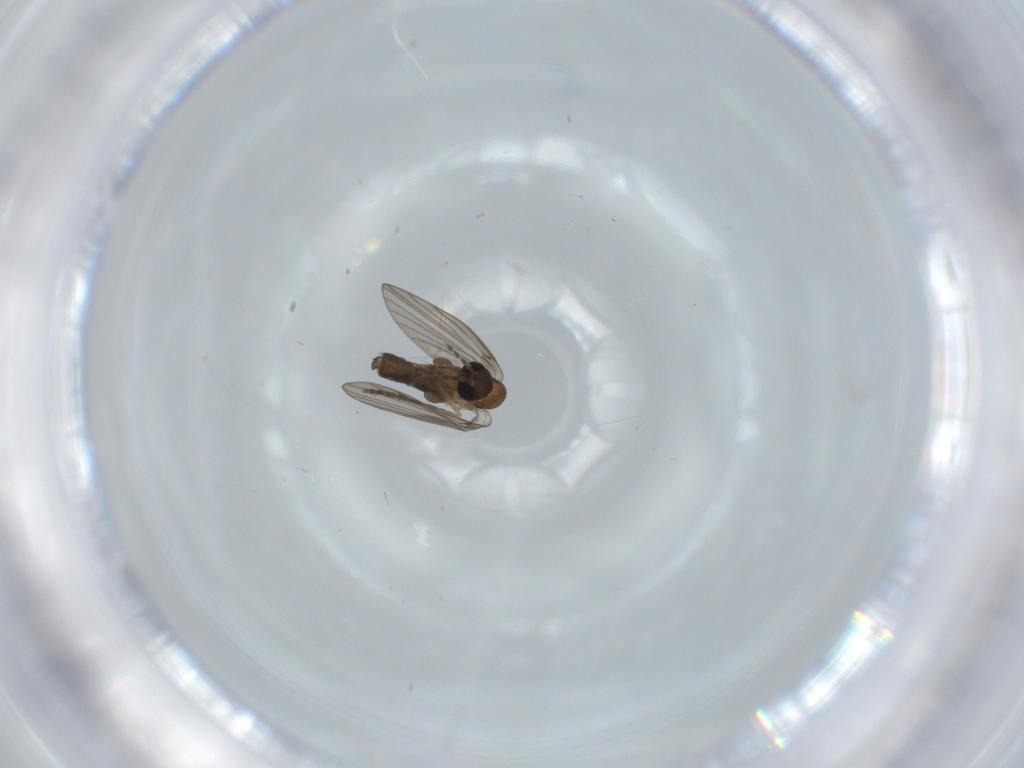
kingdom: Animalia
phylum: Arthropoda
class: Insecta
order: Diptera
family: Psychodidae
